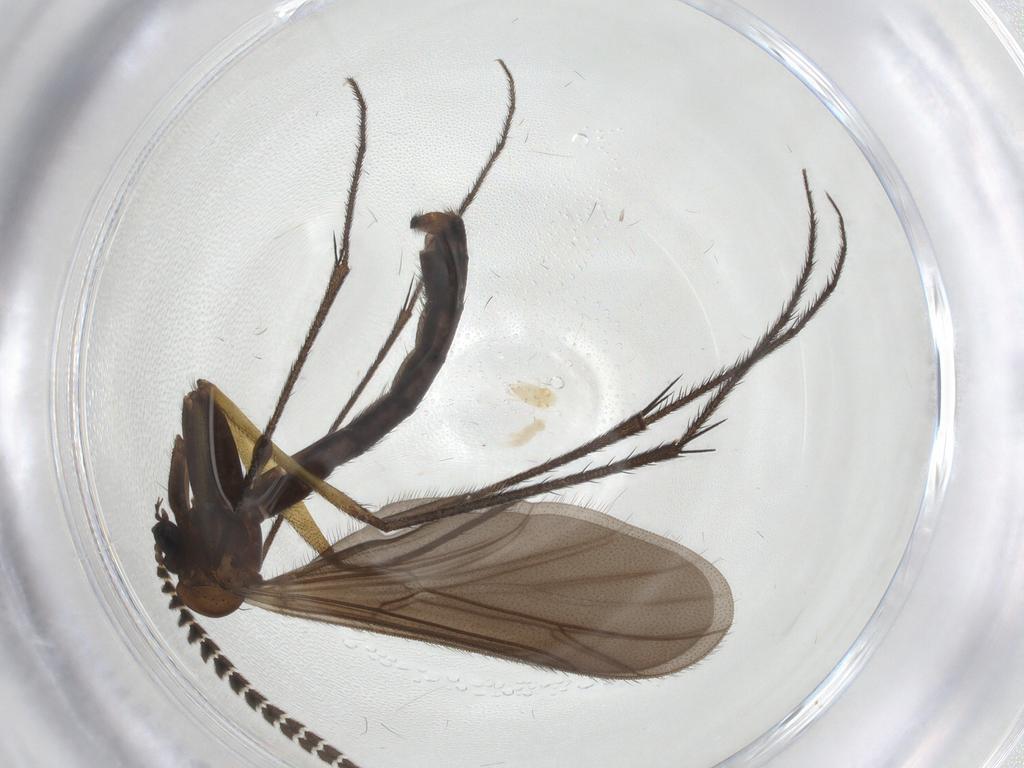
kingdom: Animalia
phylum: Arthropoda
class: Insecta
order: Diptera
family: Ditomyiidae
